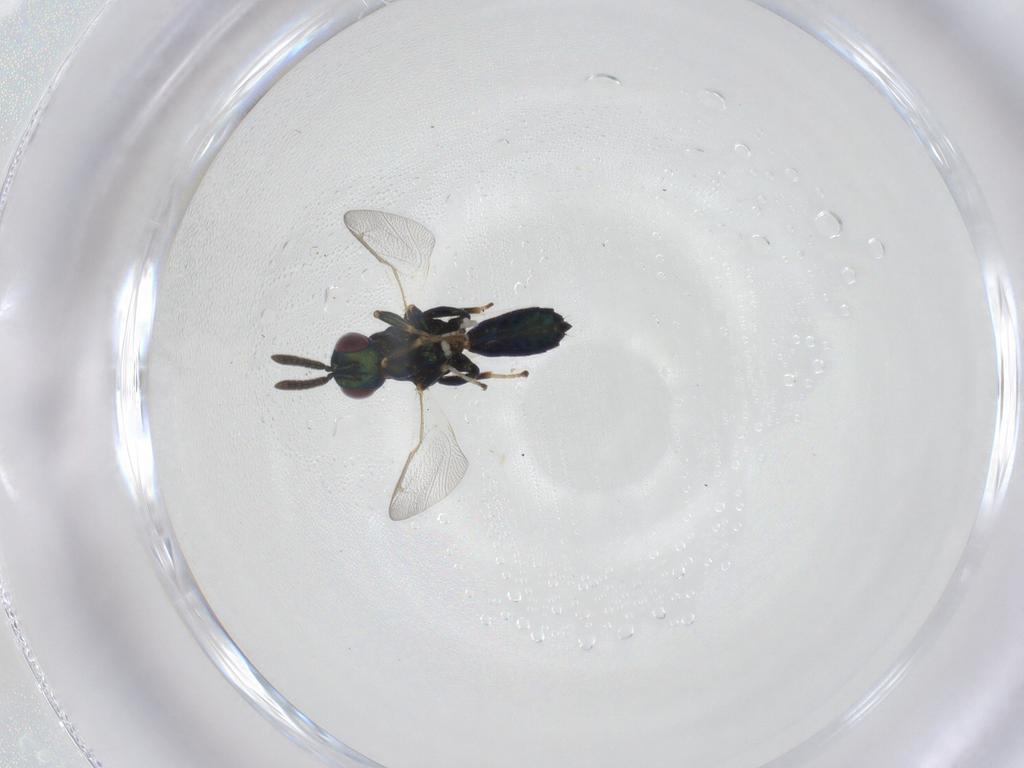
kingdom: Animalia
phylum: Arthropoda
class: Insecta
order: Hymenoptera
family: Torymidae
